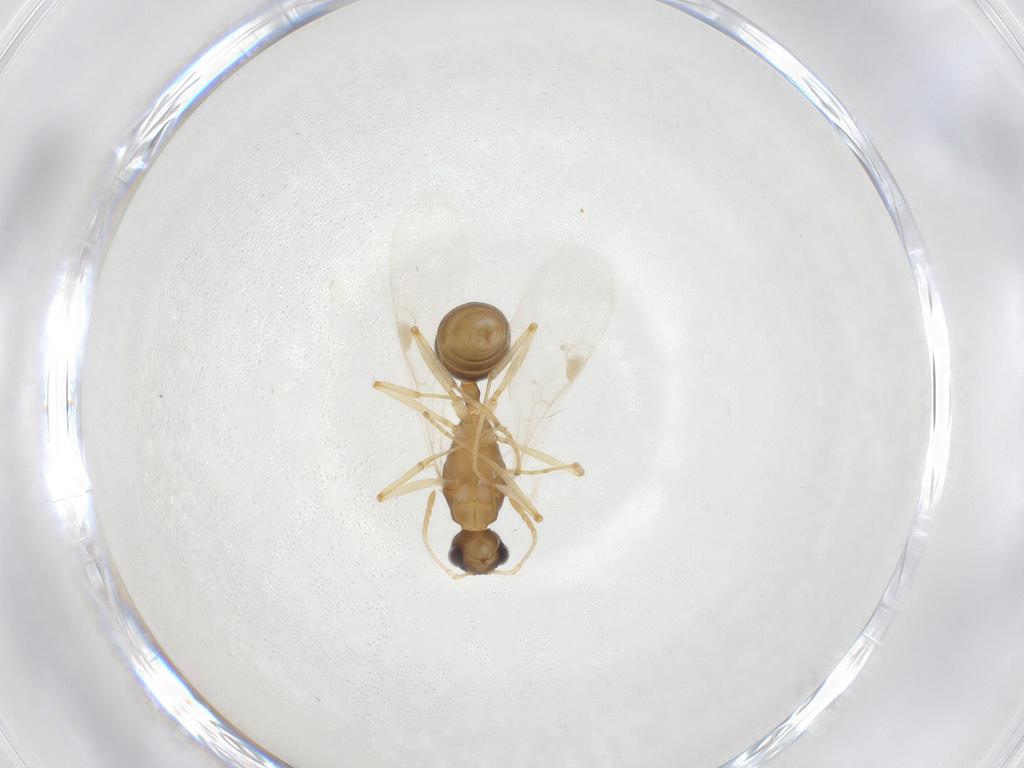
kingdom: Animalia
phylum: Arthropoda
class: Insecta
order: Hymenoptera
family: Formicidae
